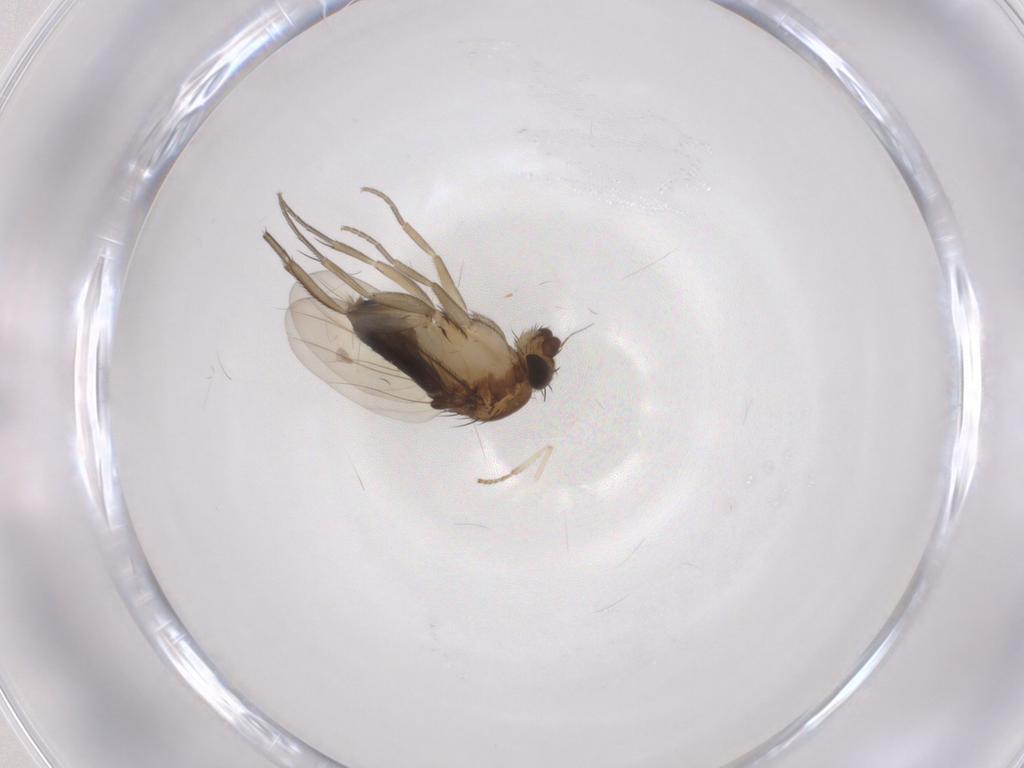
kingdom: Animalia
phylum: Arthropoda
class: Insecta
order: Diptera
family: Phoridae
